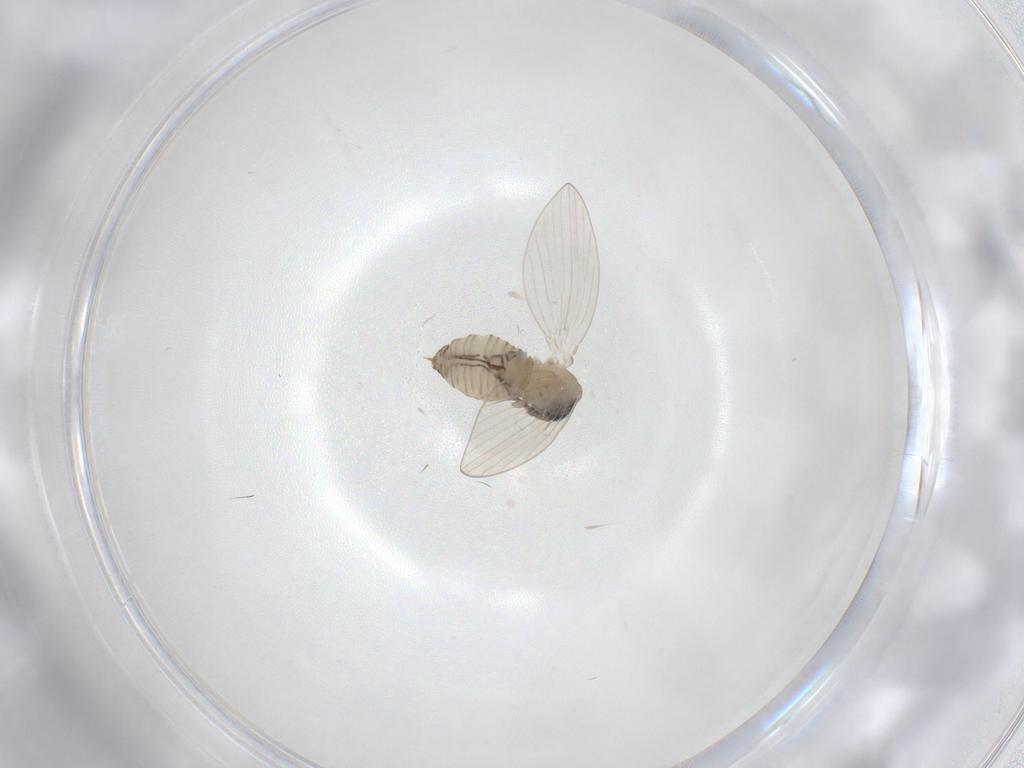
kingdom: Animalia
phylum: Arthropoda
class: Insecta
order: Diptera
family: Psychodidae
